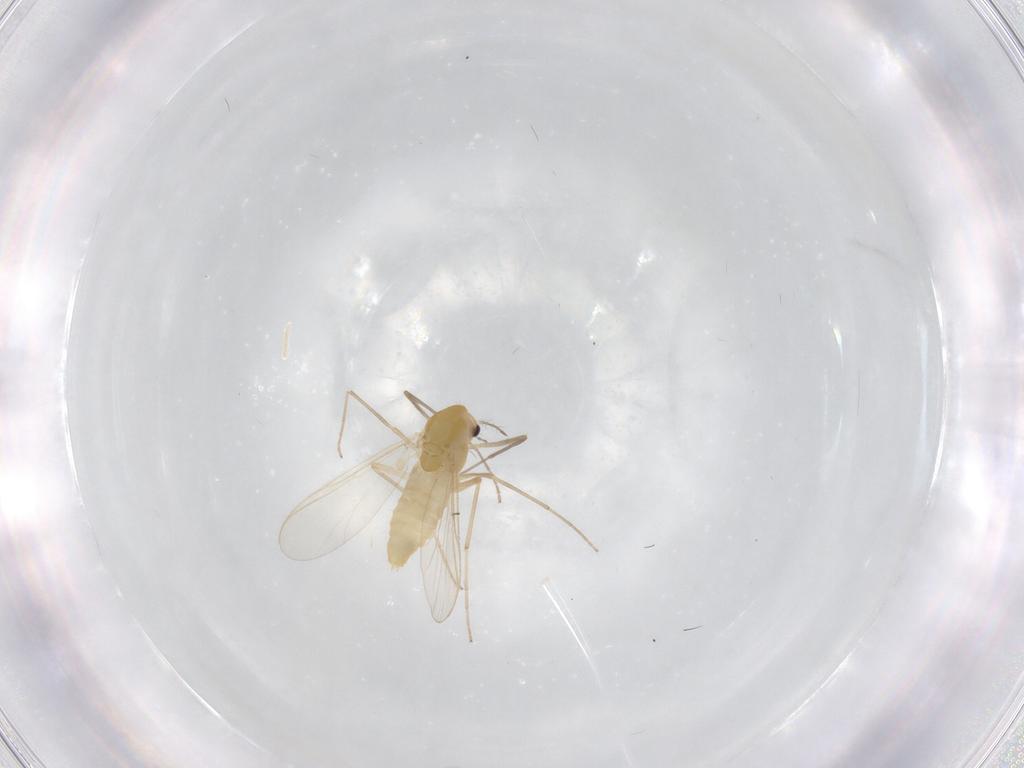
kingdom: Animalia
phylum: Arthropoda
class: Insecta
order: Diptera
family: Chironomidae
